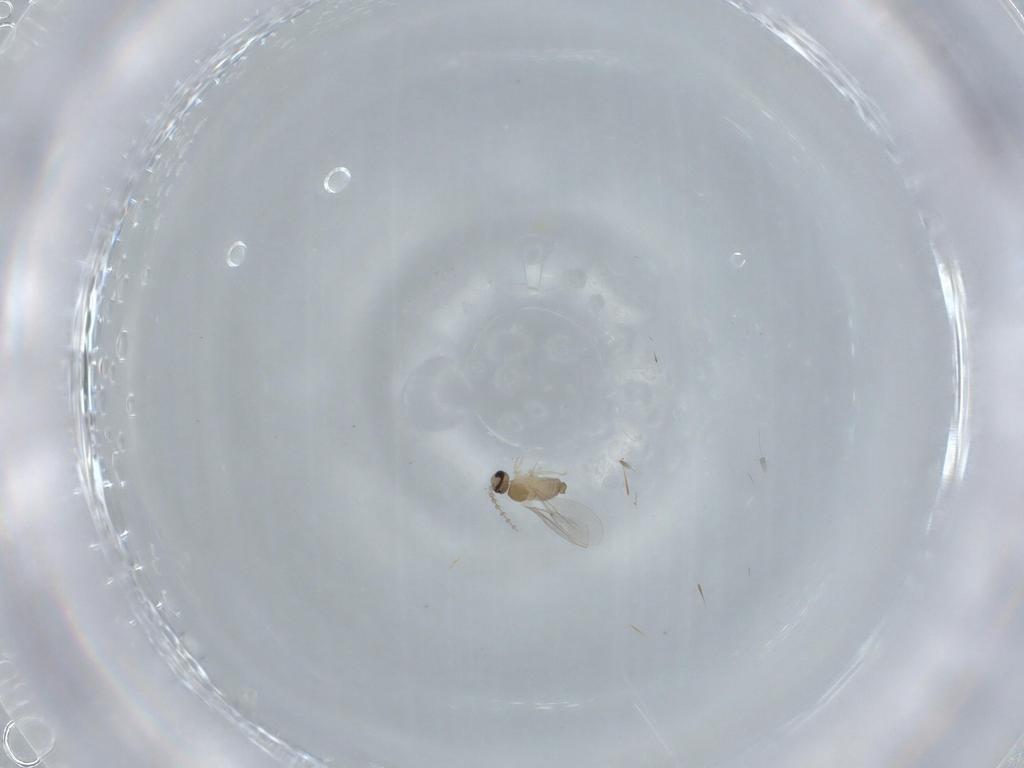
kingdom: Animalia
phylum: Arthropoda
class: Insecta
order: Diptera
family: Cecidomyiidae
